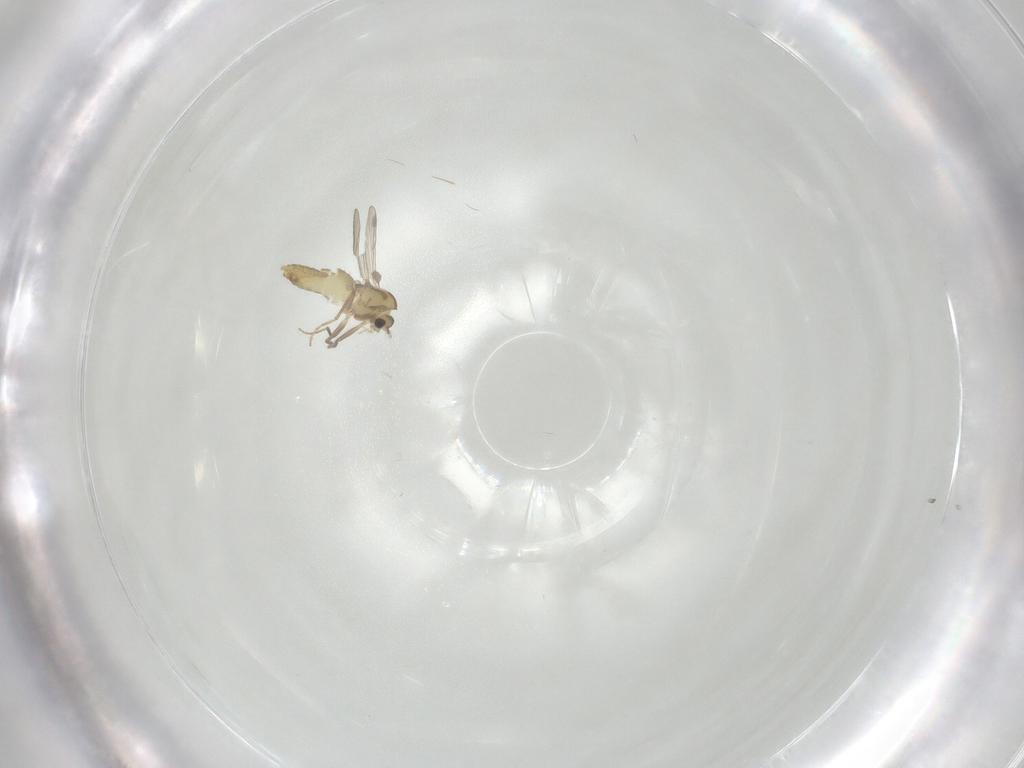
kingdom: Animalia
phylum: Arthropoda
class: Insecta
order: Diptera
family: Chironomidae
